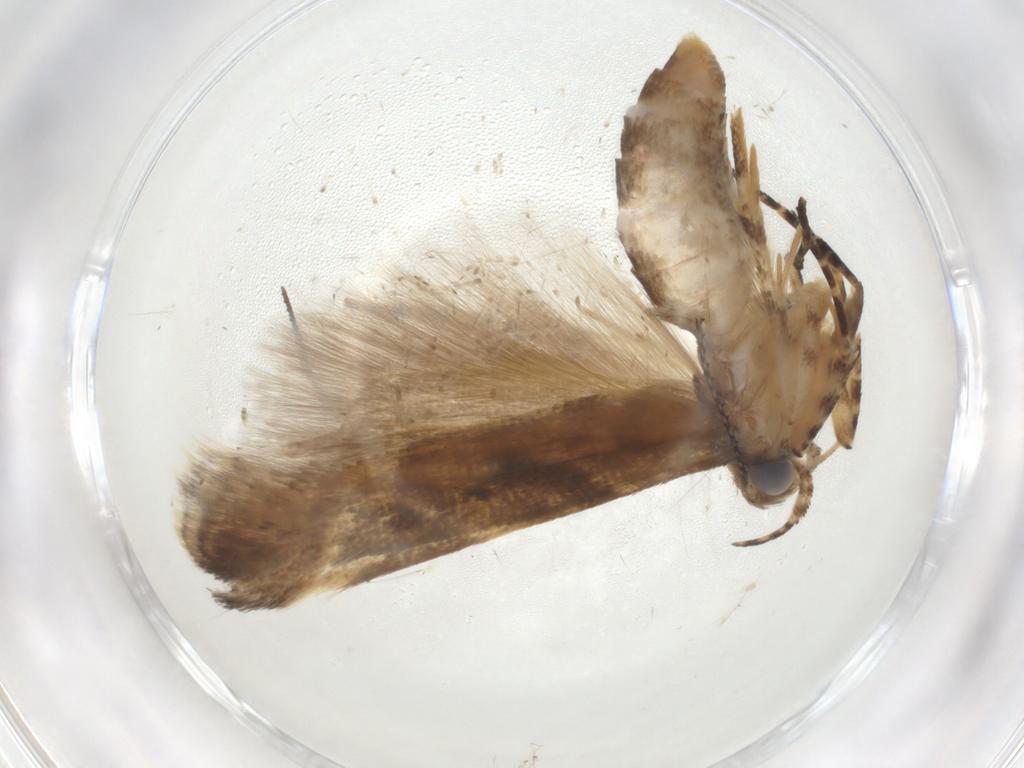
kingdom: Animalia
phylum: Arthropoda
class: Insecta
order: Lepidoptera
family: Gelechiidae
